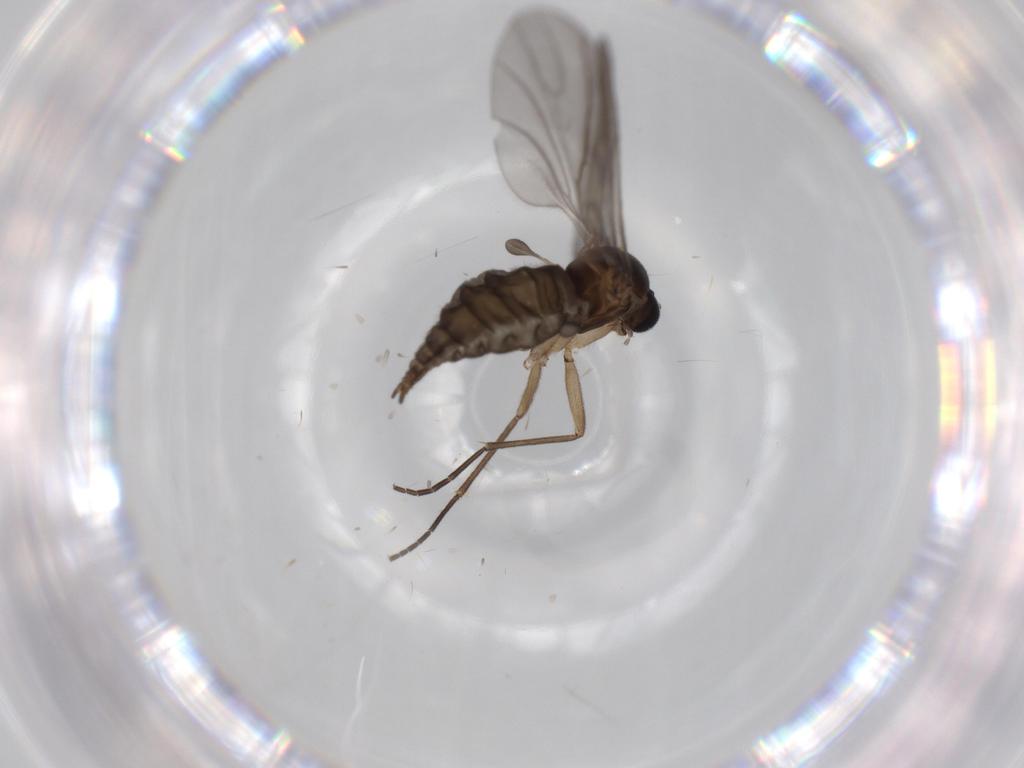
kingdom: Animalia
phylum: Arthropoda
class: Insecta
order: Diptera
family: Sciaridae
